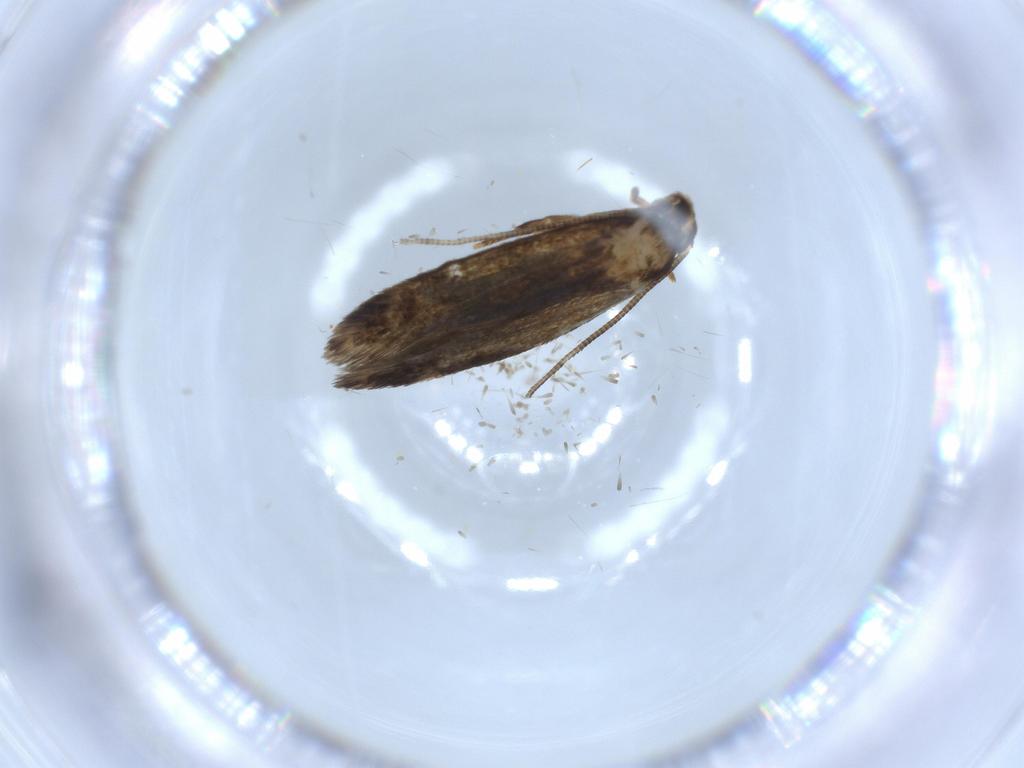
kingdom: Animalia
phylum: Arthropoda
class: Insecta
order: Lepidoptera
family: Tineidae
